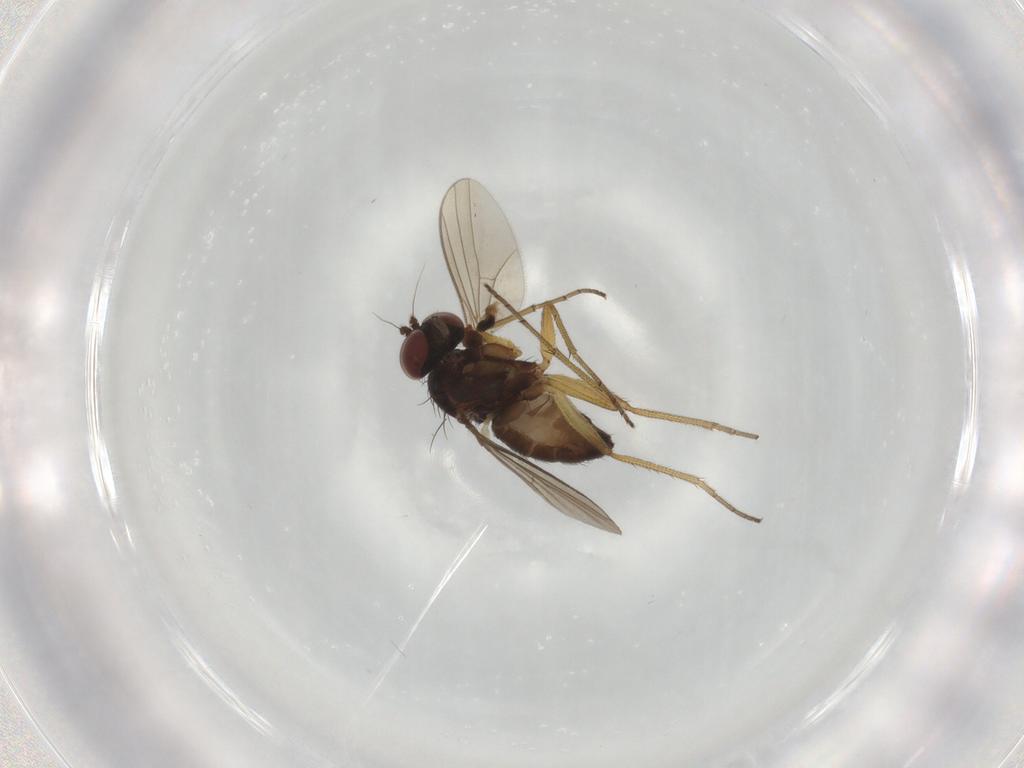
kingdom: Animalia
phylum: Arthropoda
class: Insecta
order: Diptera
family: Dolichopodidae
